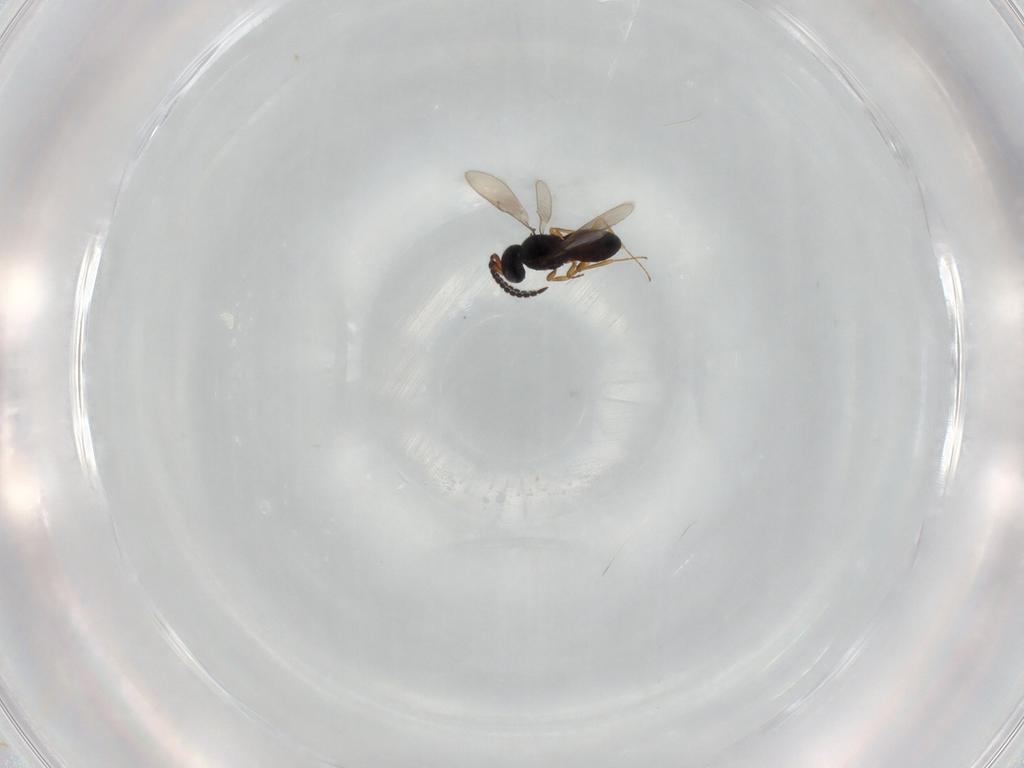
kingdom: Animalia
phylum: Arthropoda
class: Insecta
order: Hymenoptera
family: Scelionidae
